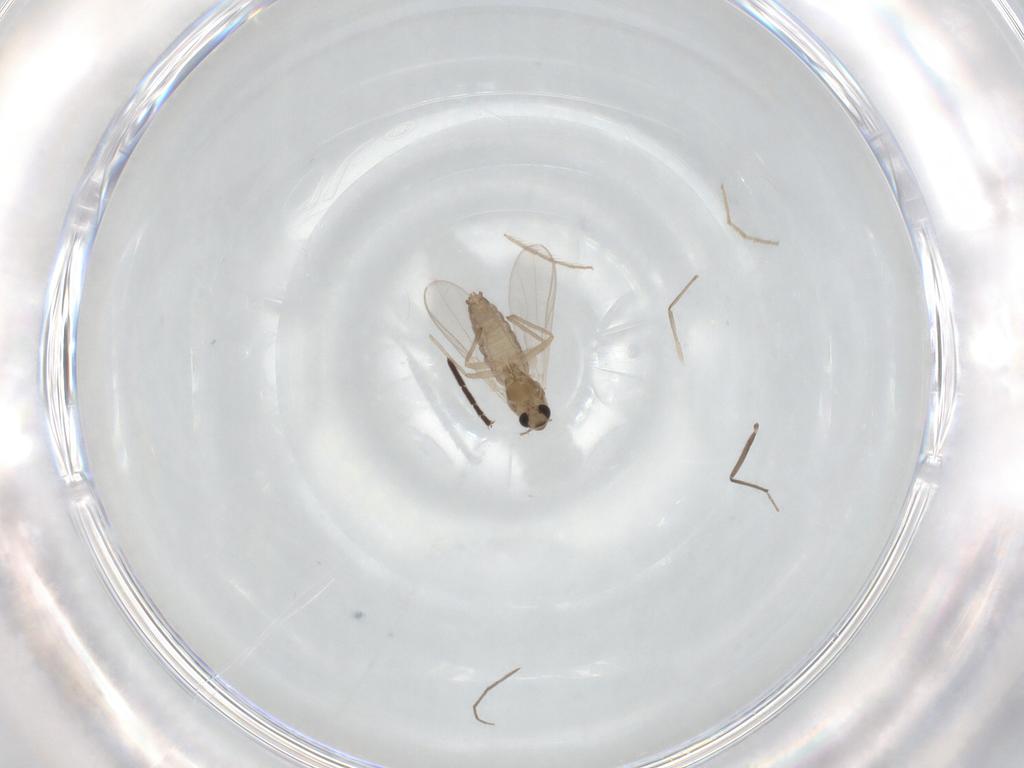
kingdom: Animalia
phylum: Arthropoda
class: Insecta
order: Diptera
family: Chironomidae
